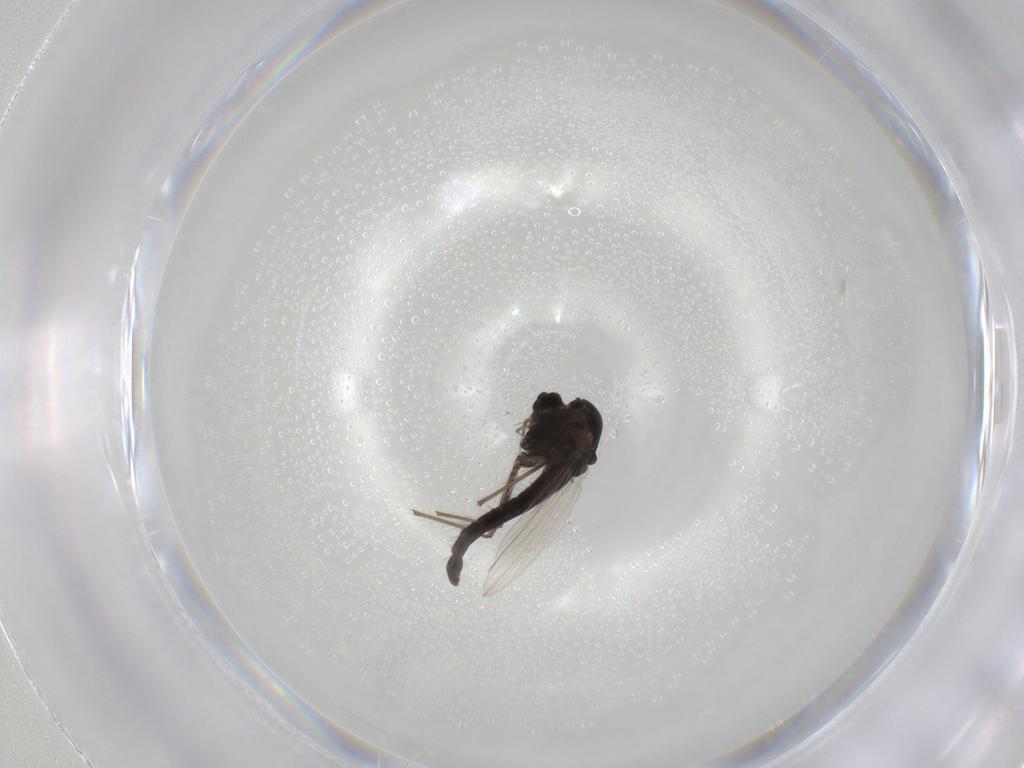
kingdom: Animalia
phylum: Arthropoda
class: Insecta
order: Diptera
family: Chironomidae
